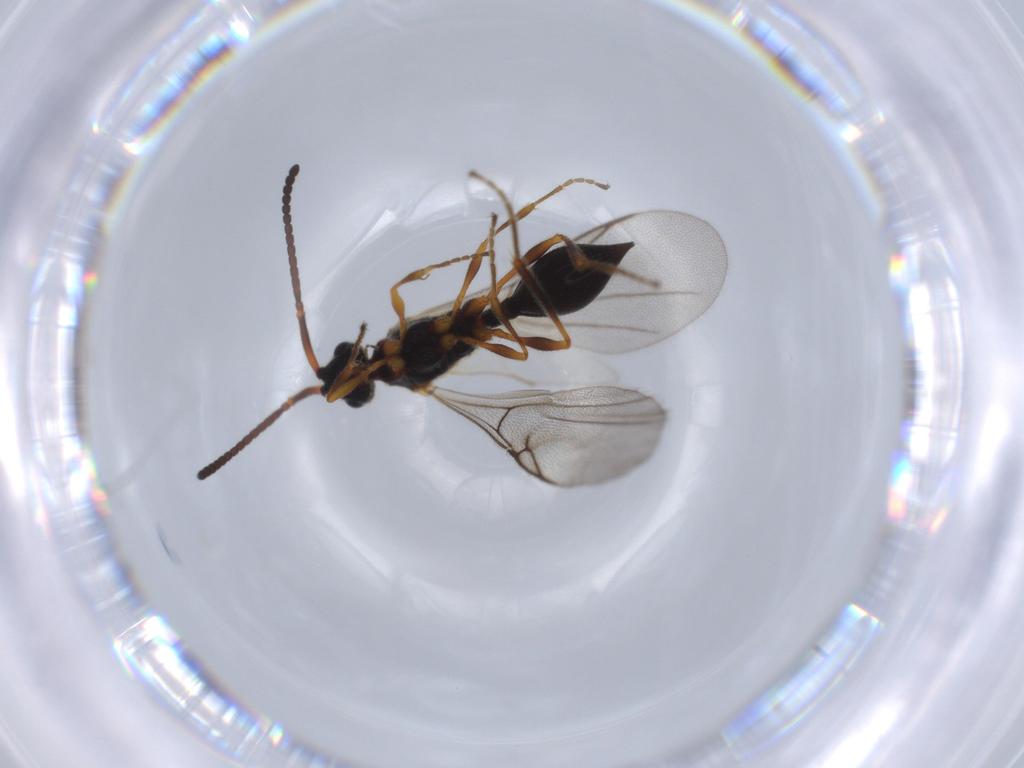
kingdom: Animalia
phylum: Arthropoda
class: Insecta
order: Hymenoptera
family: Diapriidae
